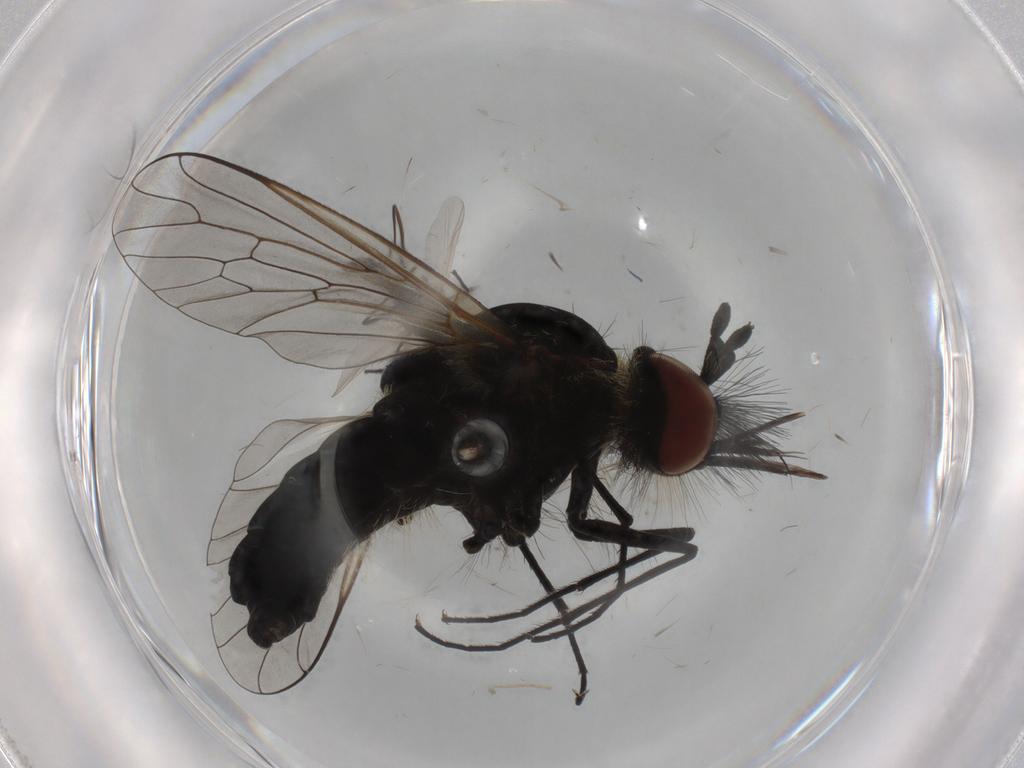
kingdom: Animalia
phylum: Arthropoda
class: Insecta
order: Diptera
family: Bombyliidae
